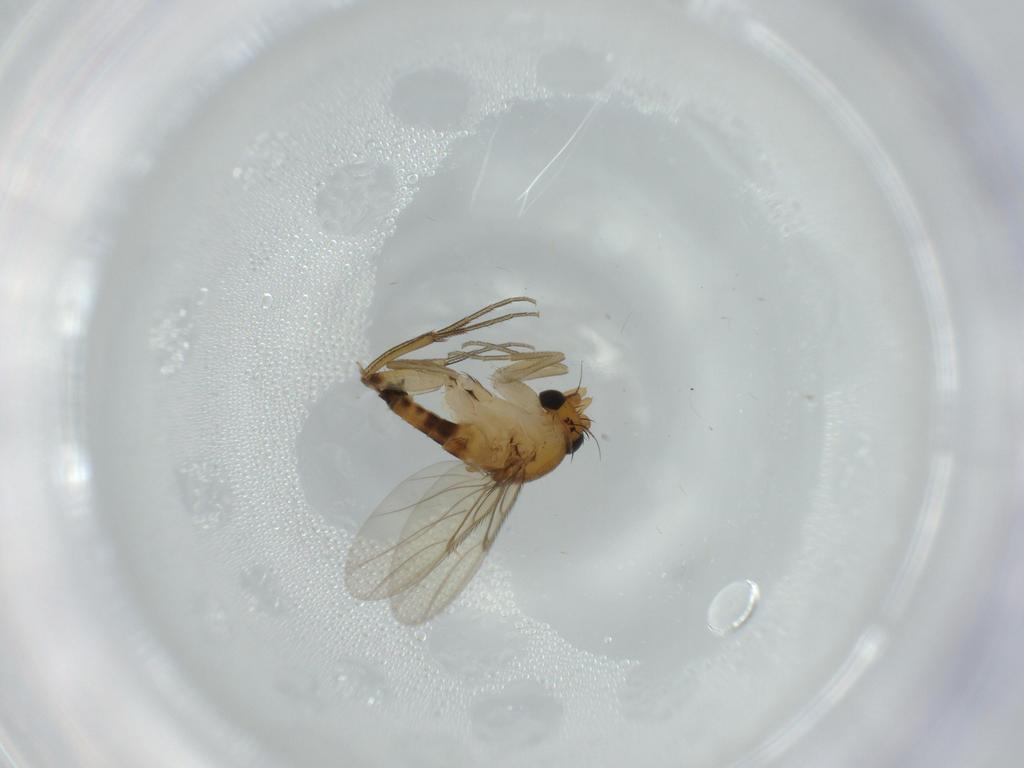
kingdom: Animalia
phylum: Arthropoda
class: Insecta
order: Diptera
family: Phoridae
